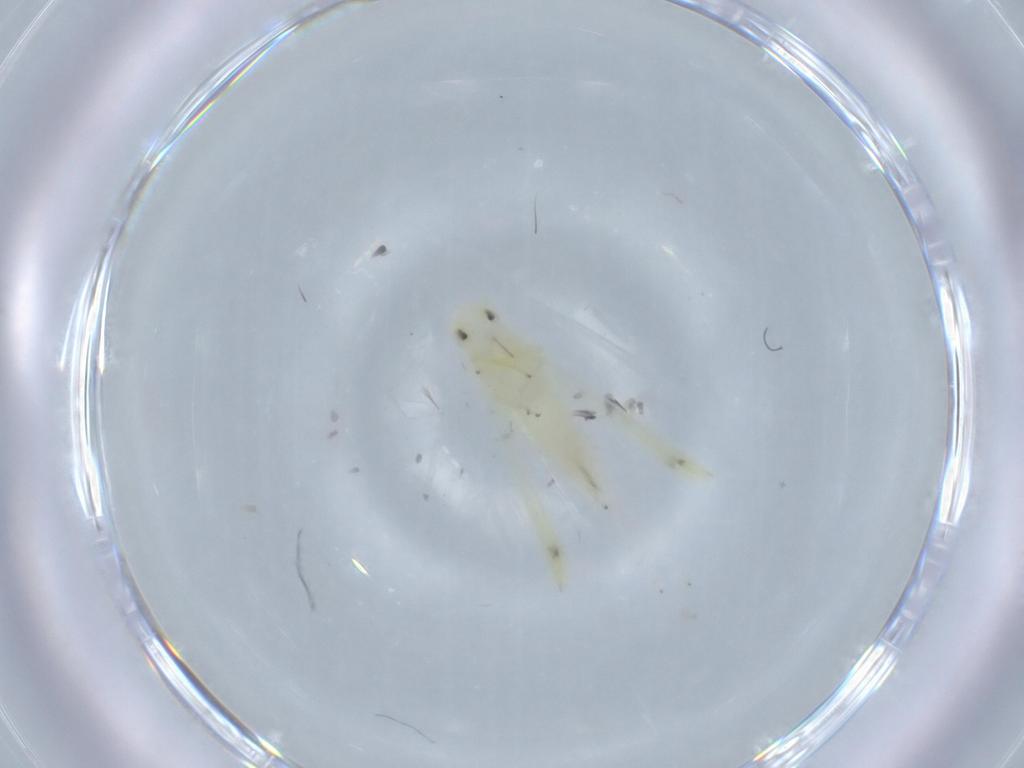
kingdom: Animalia
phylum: Arthropoda
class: Insecta
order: Hemiptera
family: Cicadellidae
